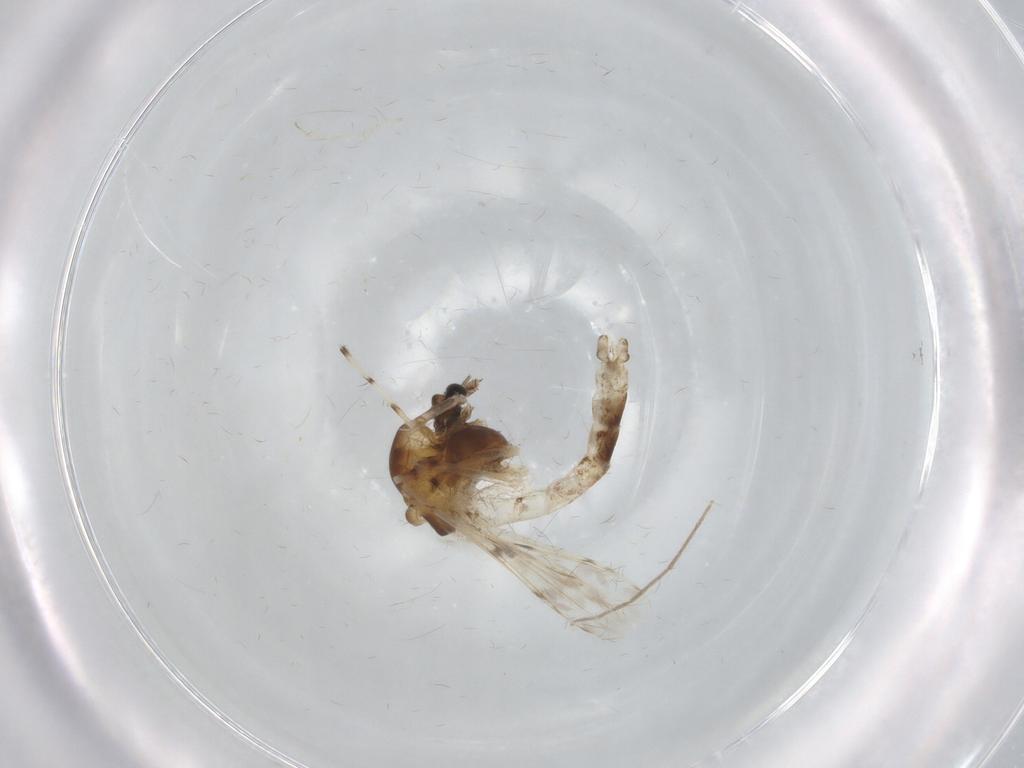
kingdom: Animalia
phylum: Arthropoda
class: Insecta
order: Diptera
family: Chironomidae
